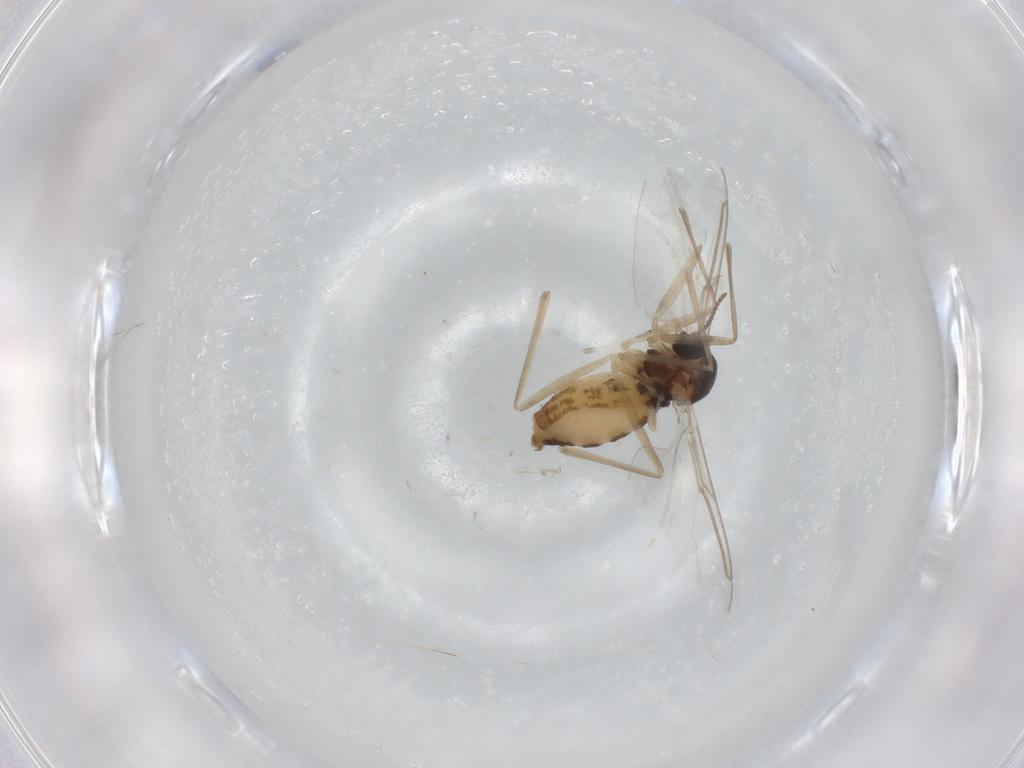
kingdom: Animalia
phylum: Arthropoda
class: Insecta
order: Diptera
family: Cecidomyiidae
